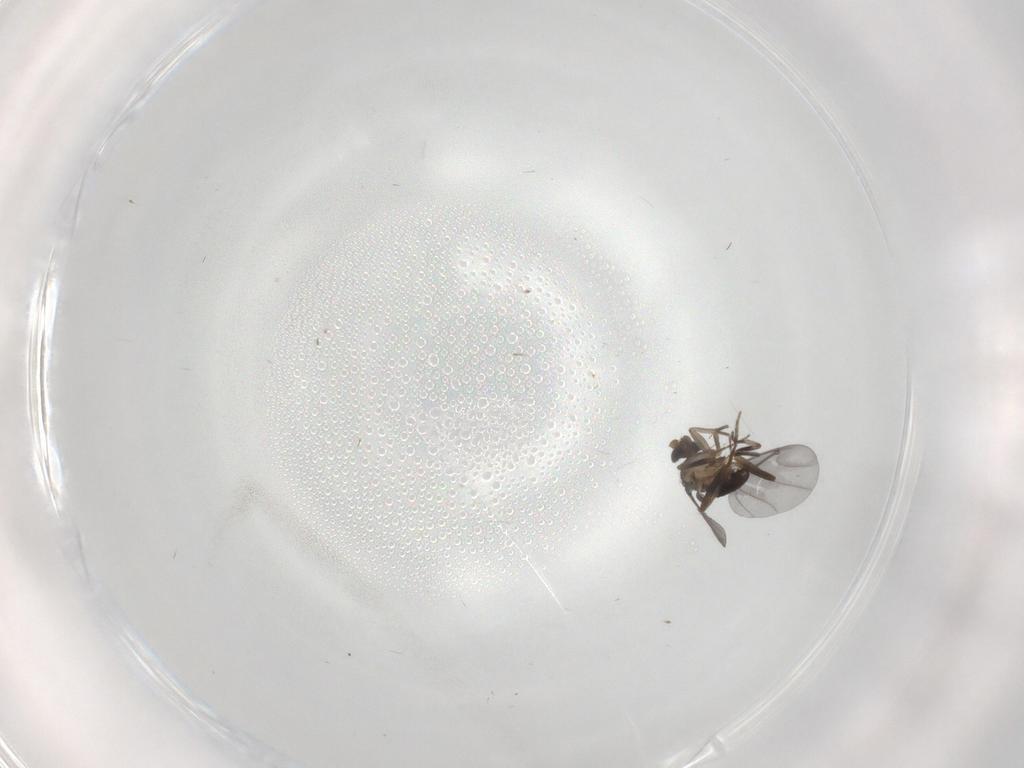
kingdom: Animalia
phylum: Arthropoda
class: Insecta
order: Diptera
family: Phoridae
